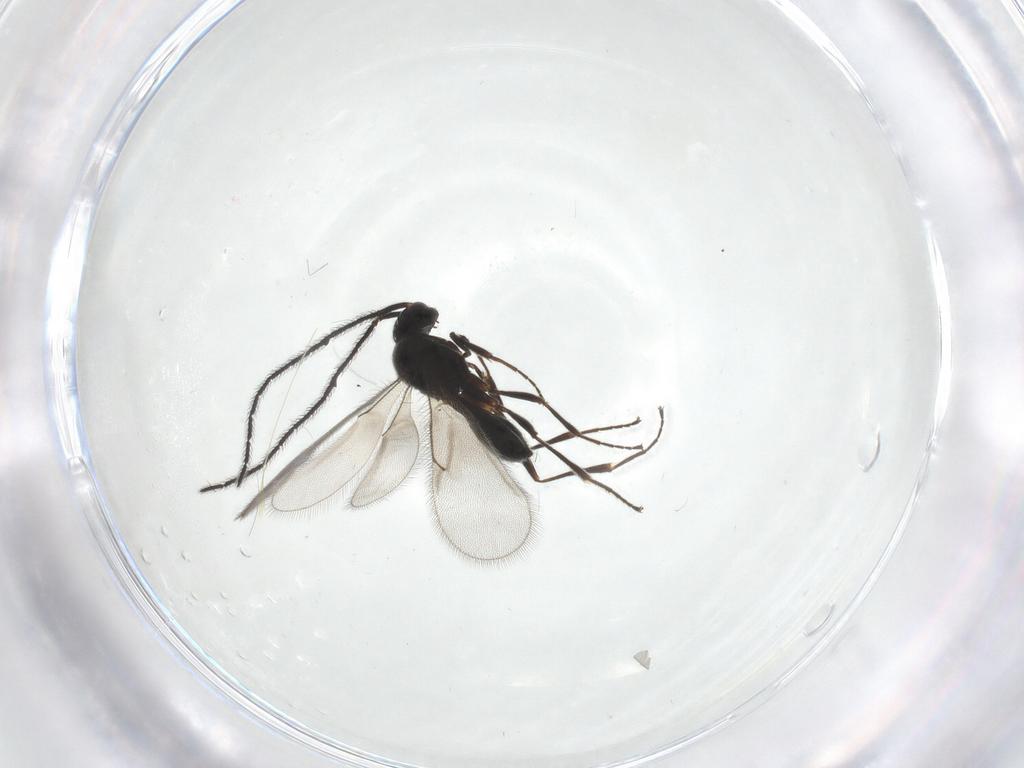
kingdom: Animalia
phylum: Arthropoda
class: Insecta
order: Hymenoptera
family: Scelionidae
